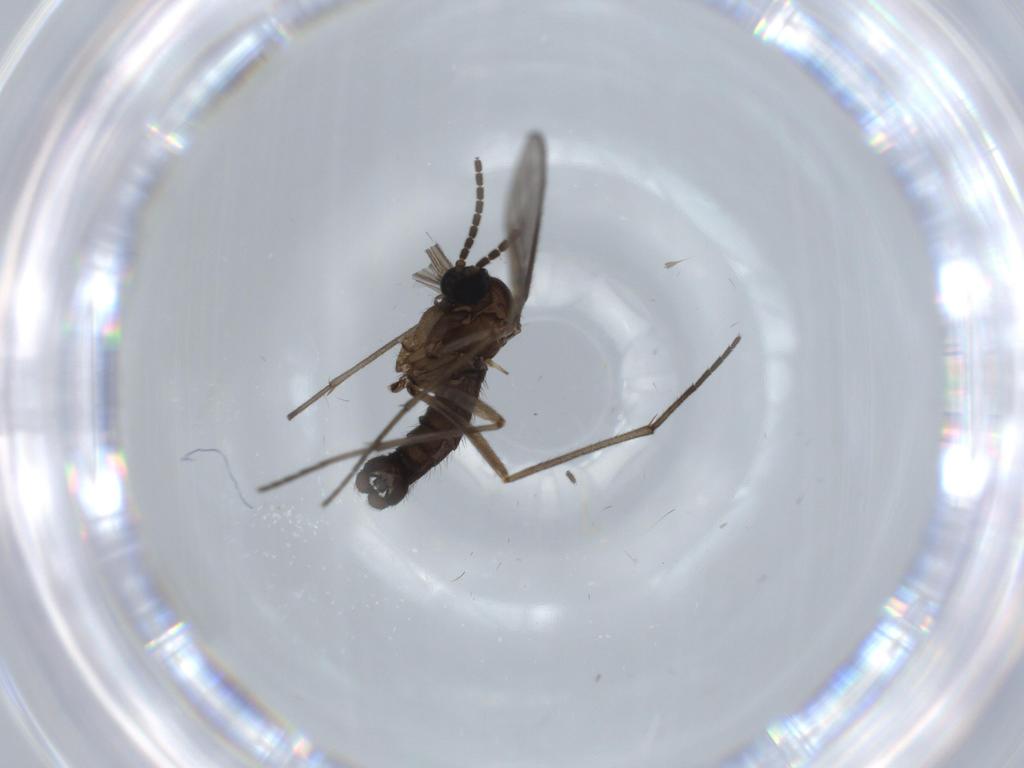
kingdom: Animalia
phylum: Arthropoda
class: Insecta
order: Diptera
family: Sciaridae
